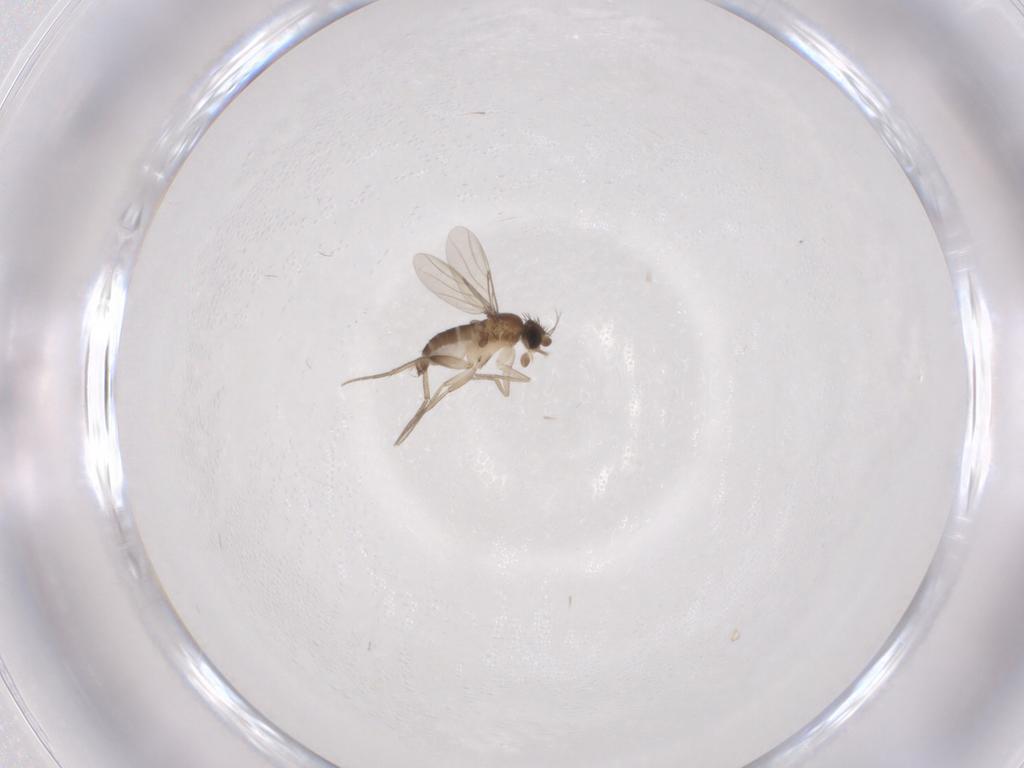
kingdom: Animalia
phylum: Arthropoda
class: Insecta
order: Diptera
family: Phoridae
